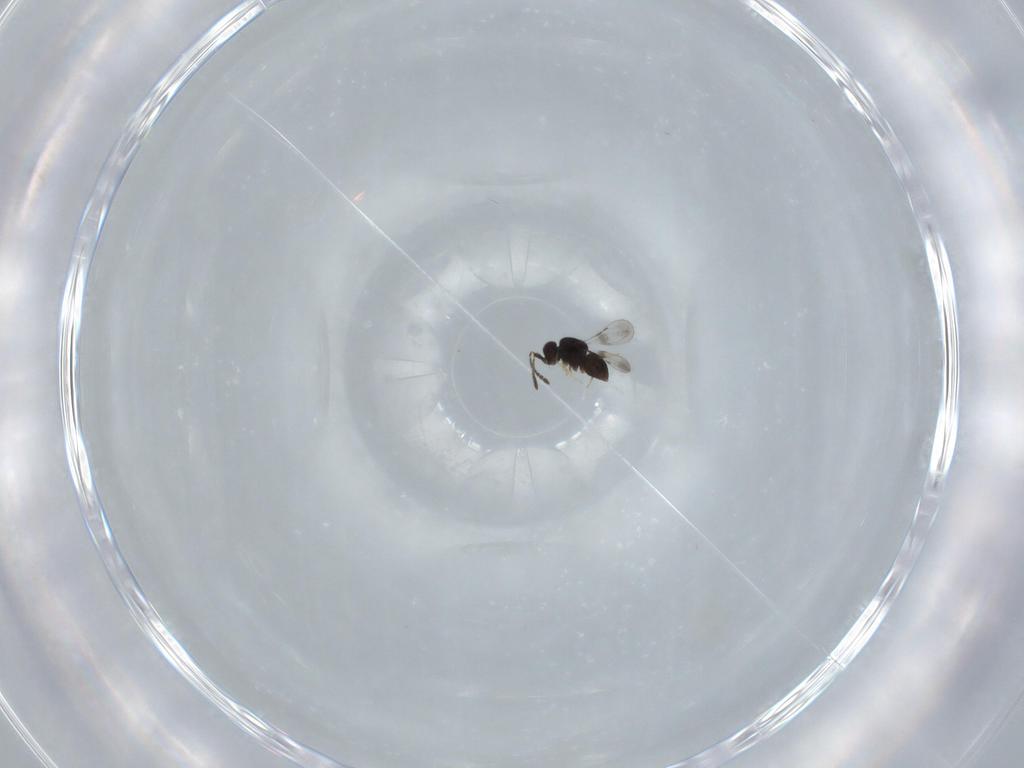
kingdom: Animalia
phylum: Arthropoda
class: Insecta
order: Hymenoptera
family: Ceraphronidae
